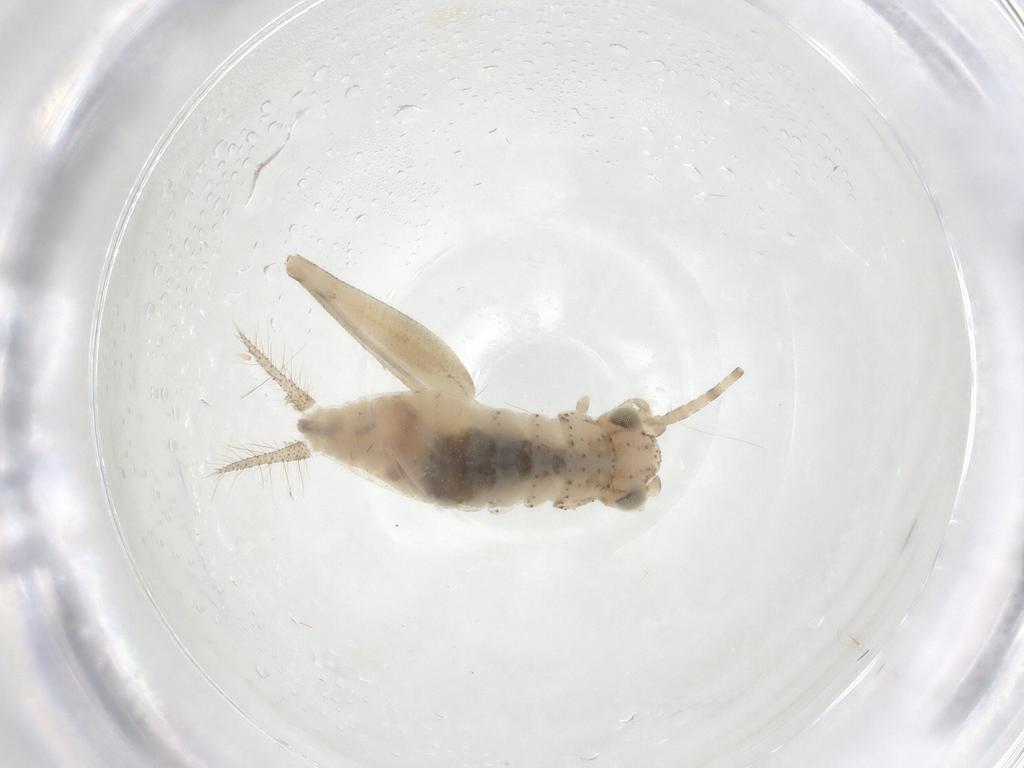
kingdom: Animalia
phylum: Arthropoda
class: Insecta
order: Orthoptera
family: Trigonidiidae
